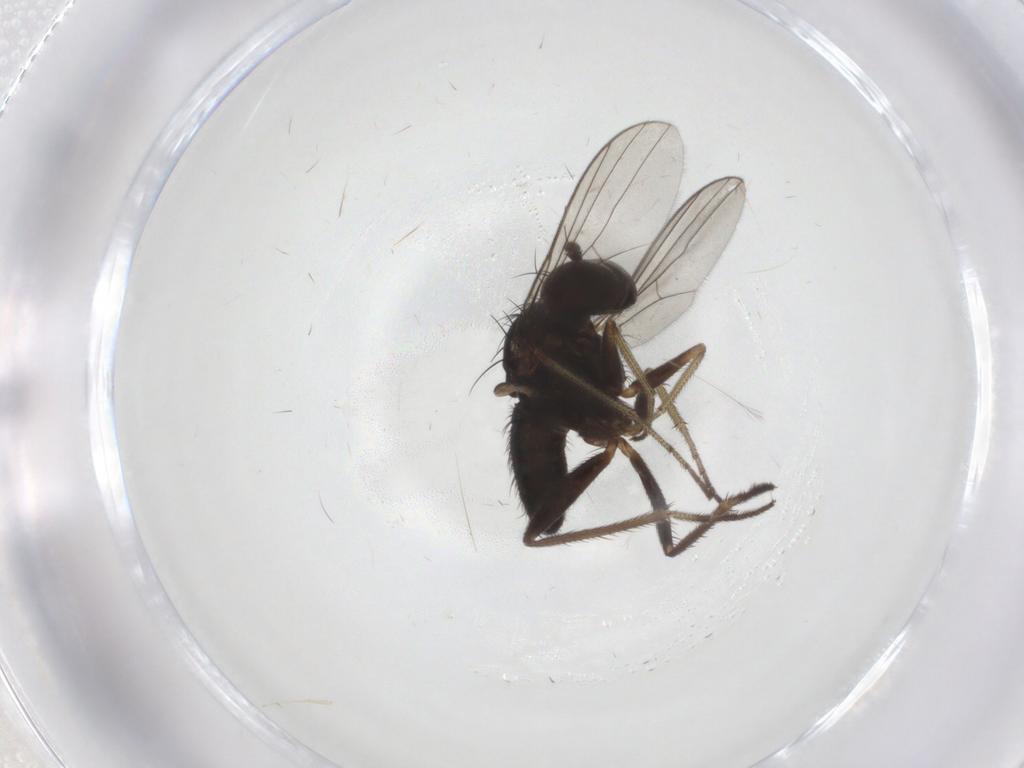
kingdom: Animalia
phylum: Arthropoda
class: Insecta
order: Diptera
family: Dolichopodidae
